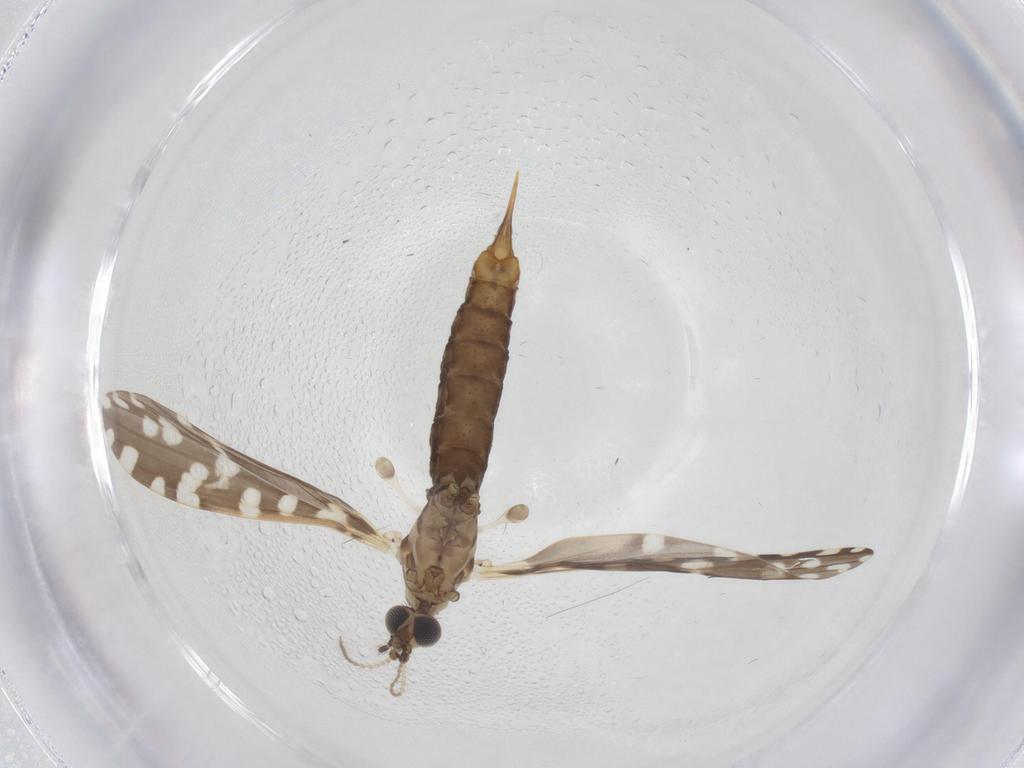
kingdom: Animalia
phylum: Arthropoda
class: Insecta
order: Diptera
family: Limoniidae
